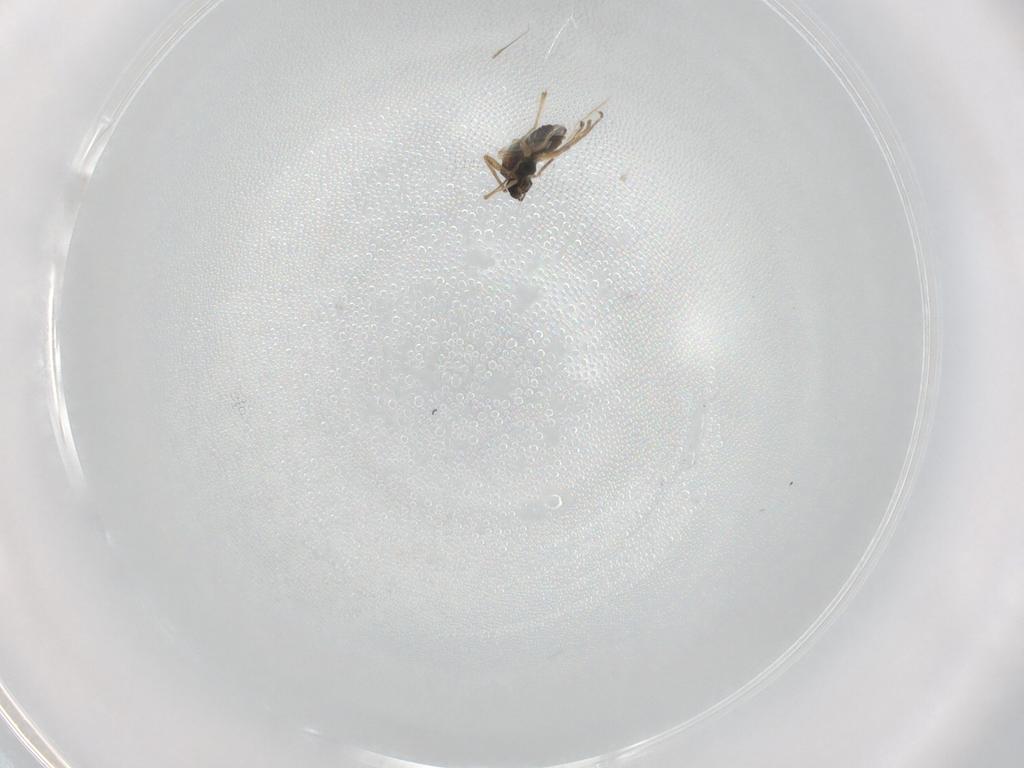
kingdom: Animalia
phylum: Arthropoda
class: Insecta
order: Diptera
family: Chironomidae
